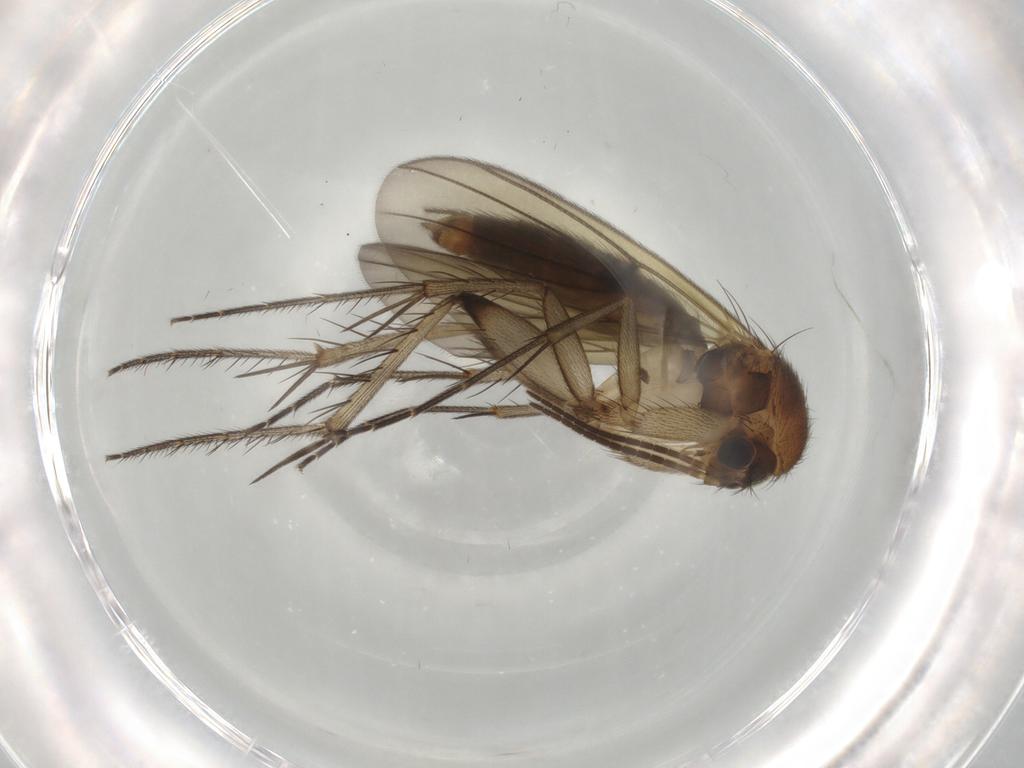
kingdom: Animalia
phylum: Arthropoda
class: Insecta
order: Diptera
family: Mycetophilidae
